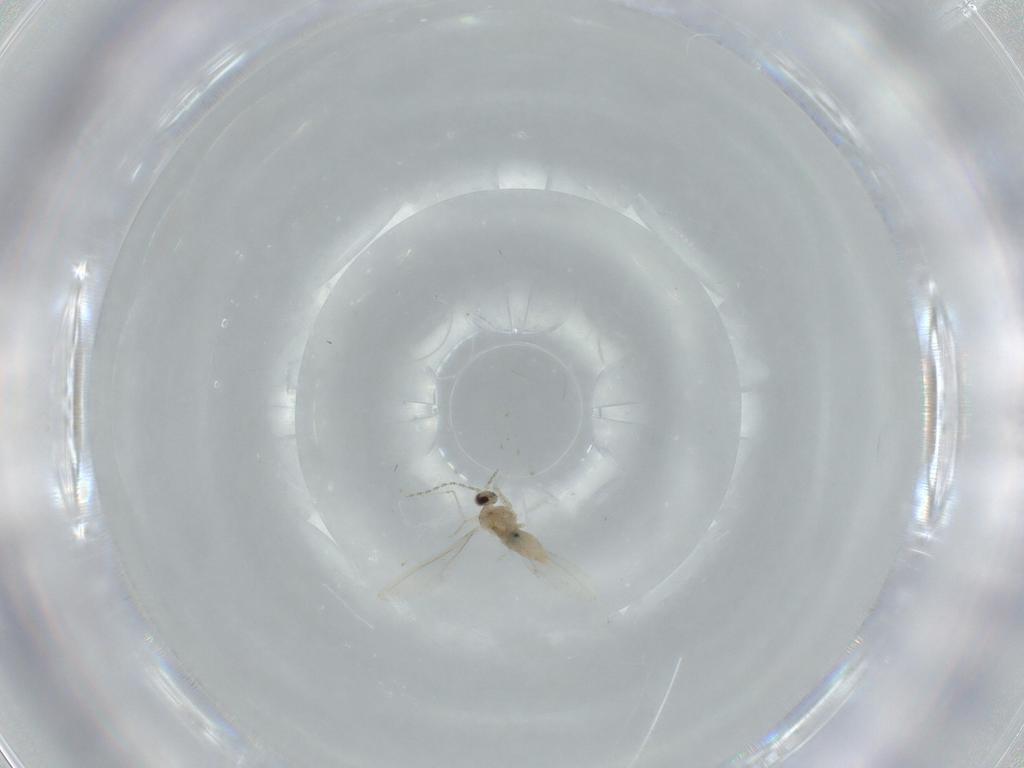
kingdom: Animalia
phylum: Arthropoda
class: Insecta
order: Diptera
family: Cecidomyiidae
